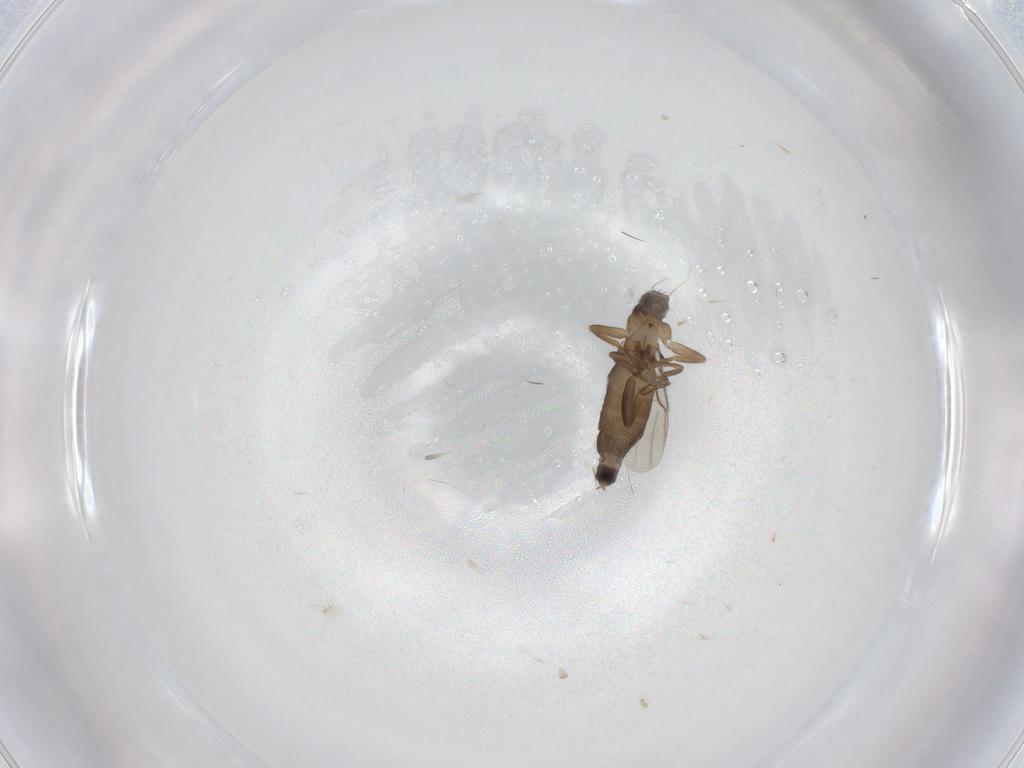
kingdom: Animalia
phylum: Arthropoda
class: Insecta
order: Diptera
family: Phoridae
